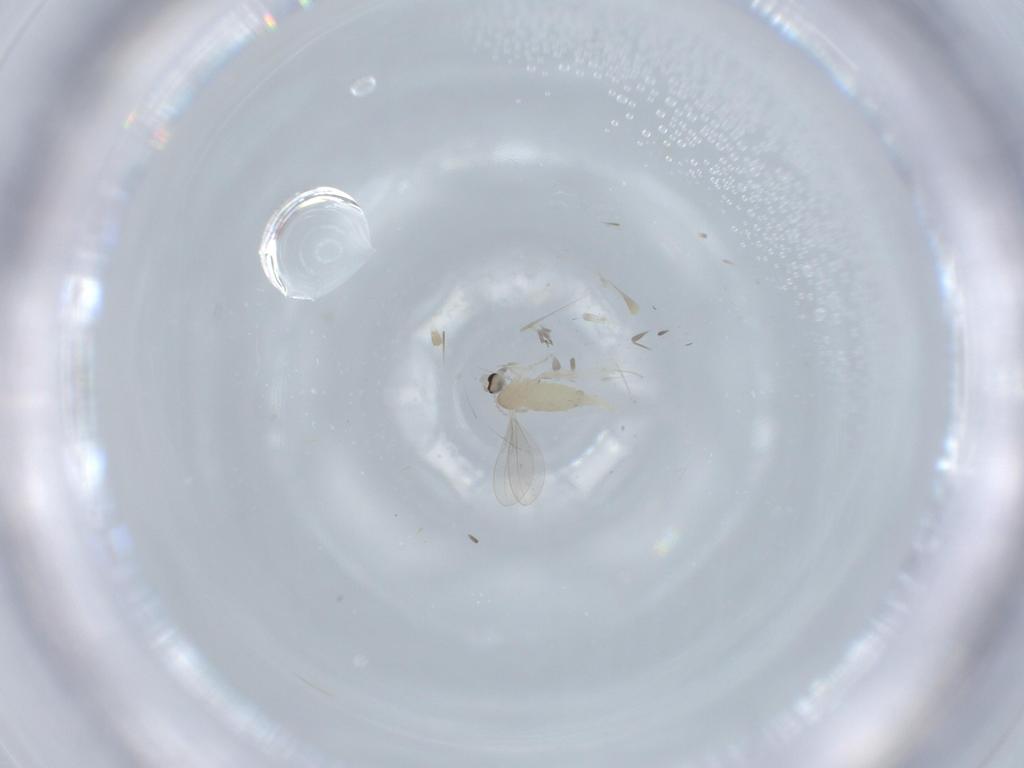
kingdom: Animalia
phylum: Arthropoda
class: Insecta
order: Diptera
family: Cecidomyiidae
